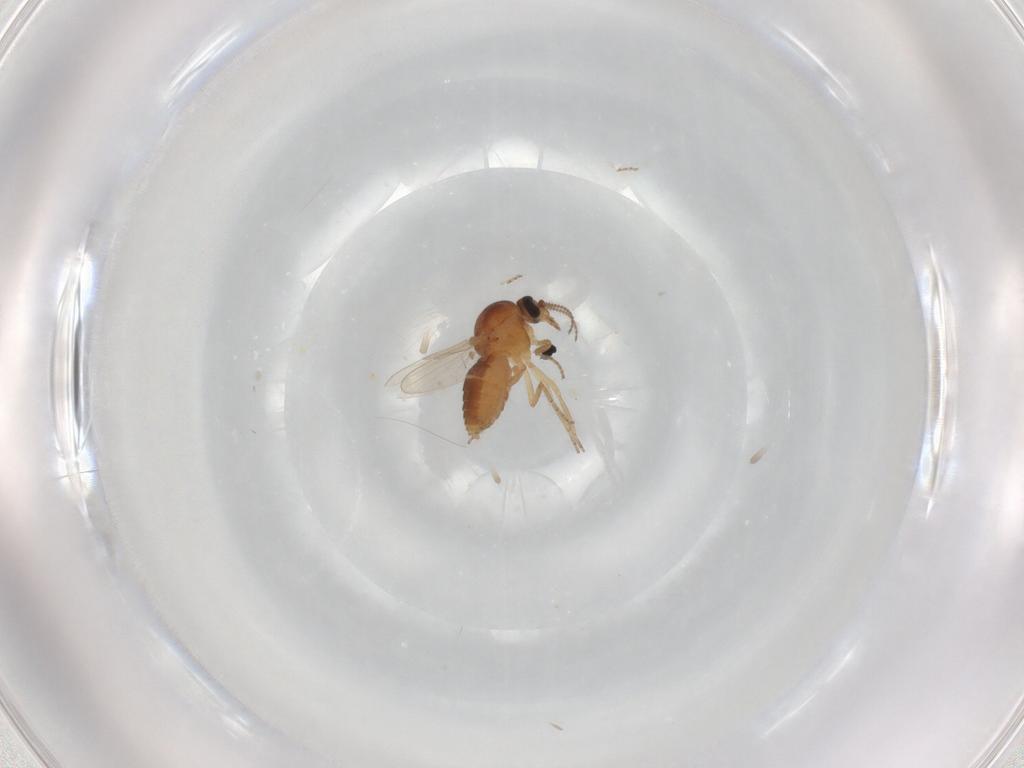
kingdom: Animalia
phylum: Arthropoda
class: Insecta
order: Diptera
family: Ceratopogonidae
